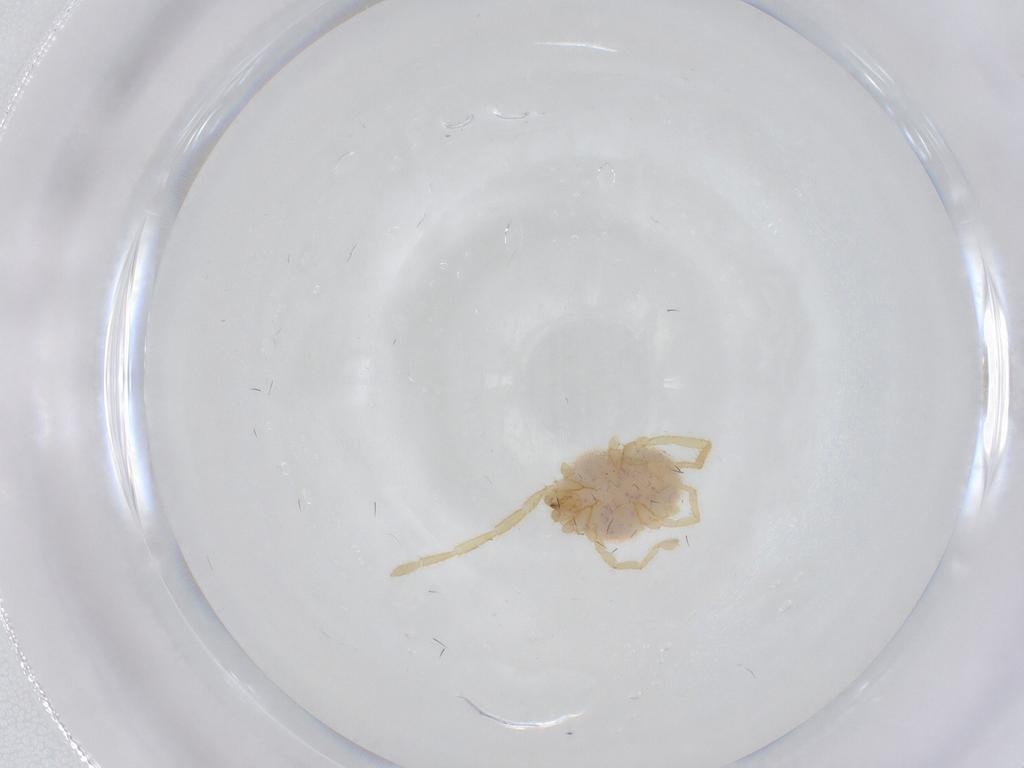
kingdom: Animalia
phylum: Arthropoda
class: Arachnida
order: Trombidiformes
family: Erythraeidae
